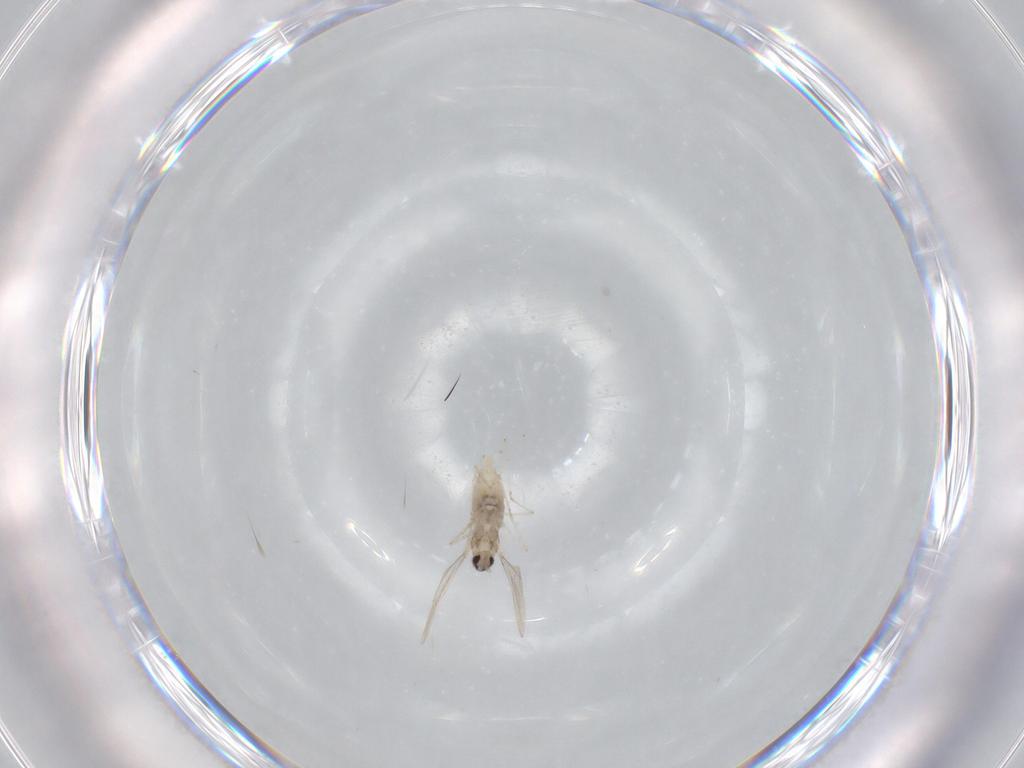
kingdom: Animalia
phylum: Arthropoda
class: Insecta
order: Diptera
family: Cecidomyiidae
